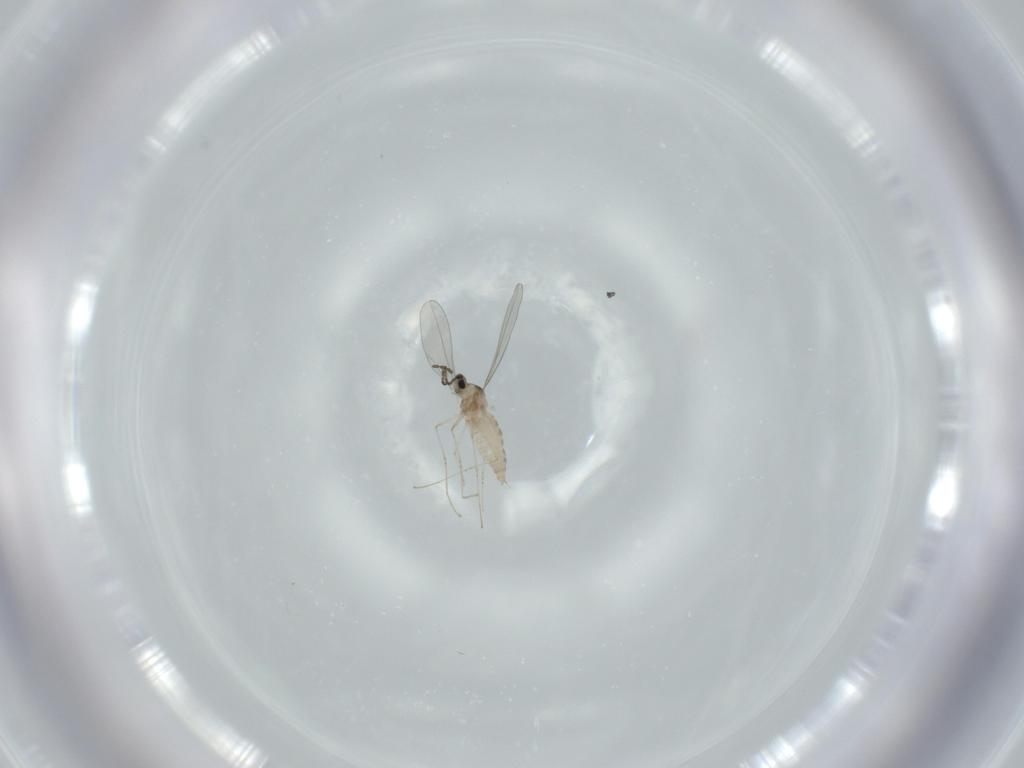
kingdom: Animalia
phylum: Arthropoda
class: Insecta
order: Diptera
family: Cecidomyiidae
